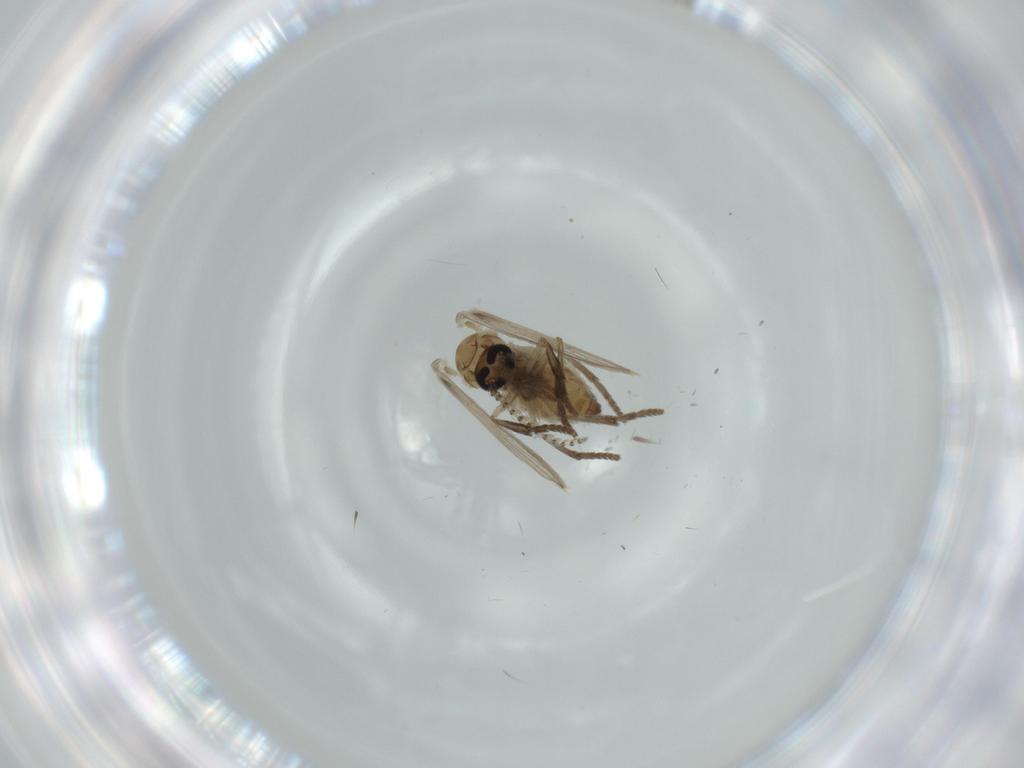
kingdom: Animalia
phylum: Arthropoda
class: Insecta
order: Diptera
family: Psychodidae
